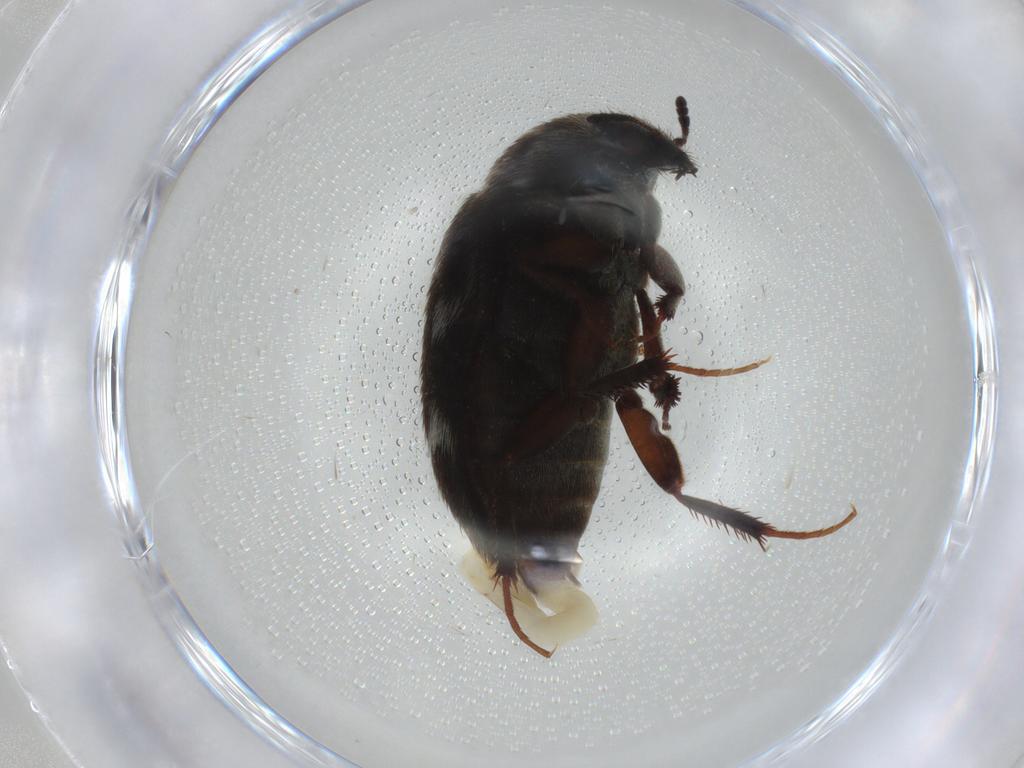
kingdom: Animalia
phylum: Arthropoda
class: Insecta
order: Coleoptera
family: Dermestidae
